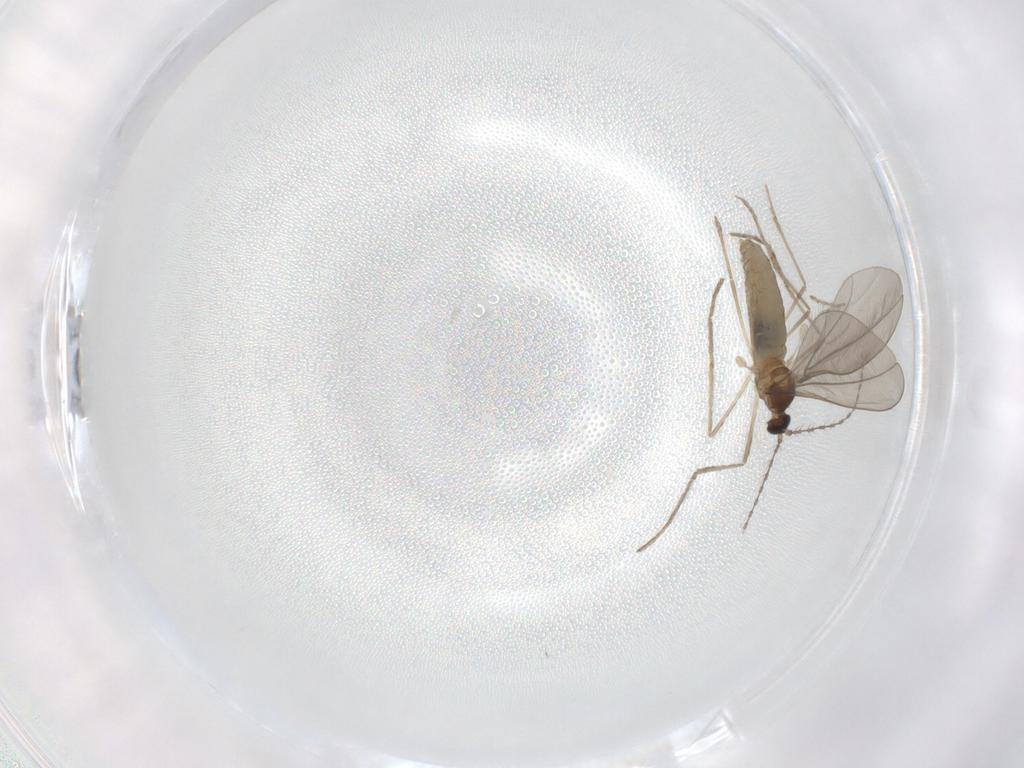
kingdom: Animalia
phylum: Arthropoda
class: Insecta
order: Diptera
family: Cecidomyiidae
